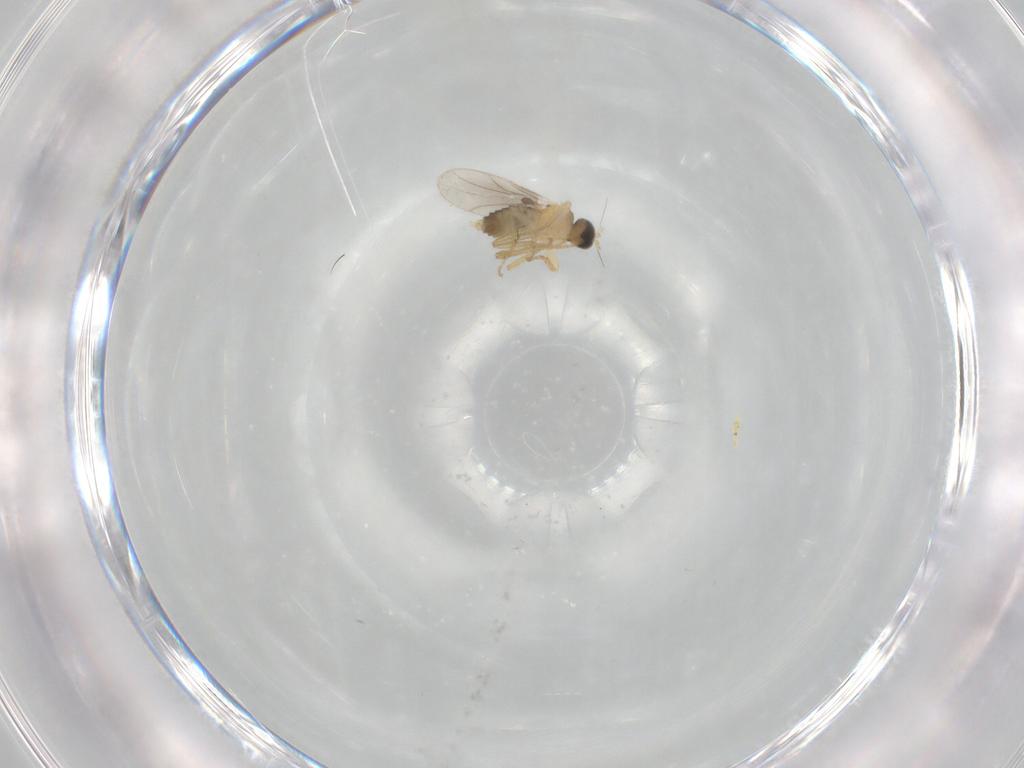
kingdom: Animalia
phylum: Arthropoda
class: Insecta
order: Diptera
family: Hybotidae
